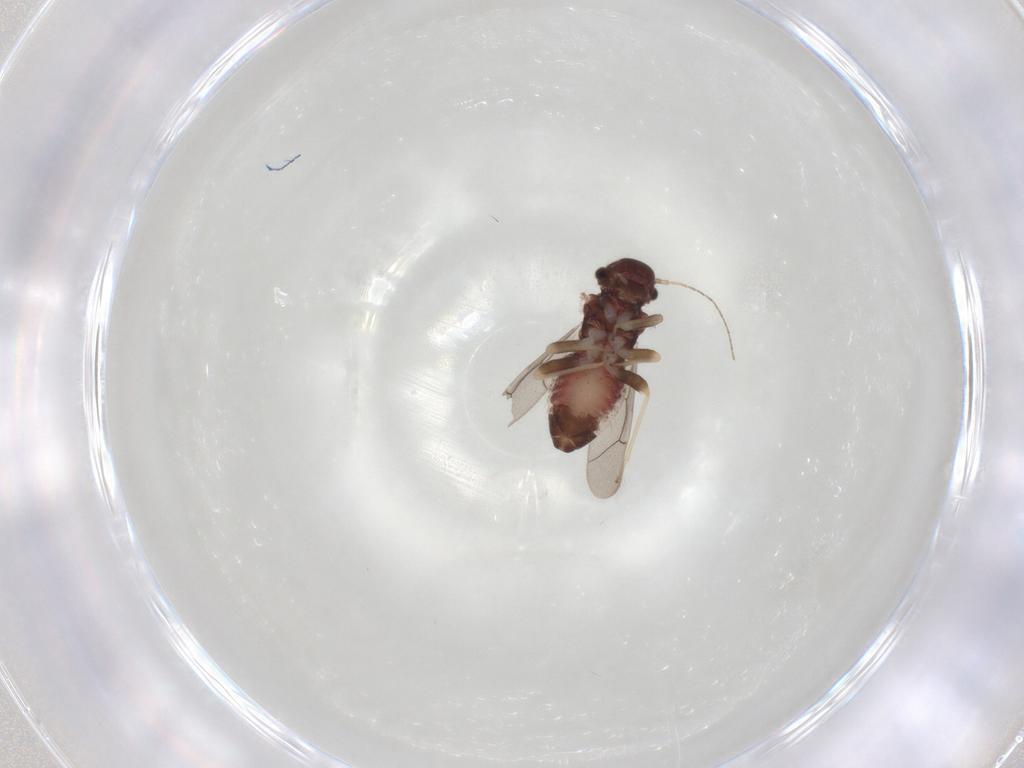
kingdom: Animalia
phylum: Arthropoda
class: Insecta
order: Psocodea
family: Archipsocidae
